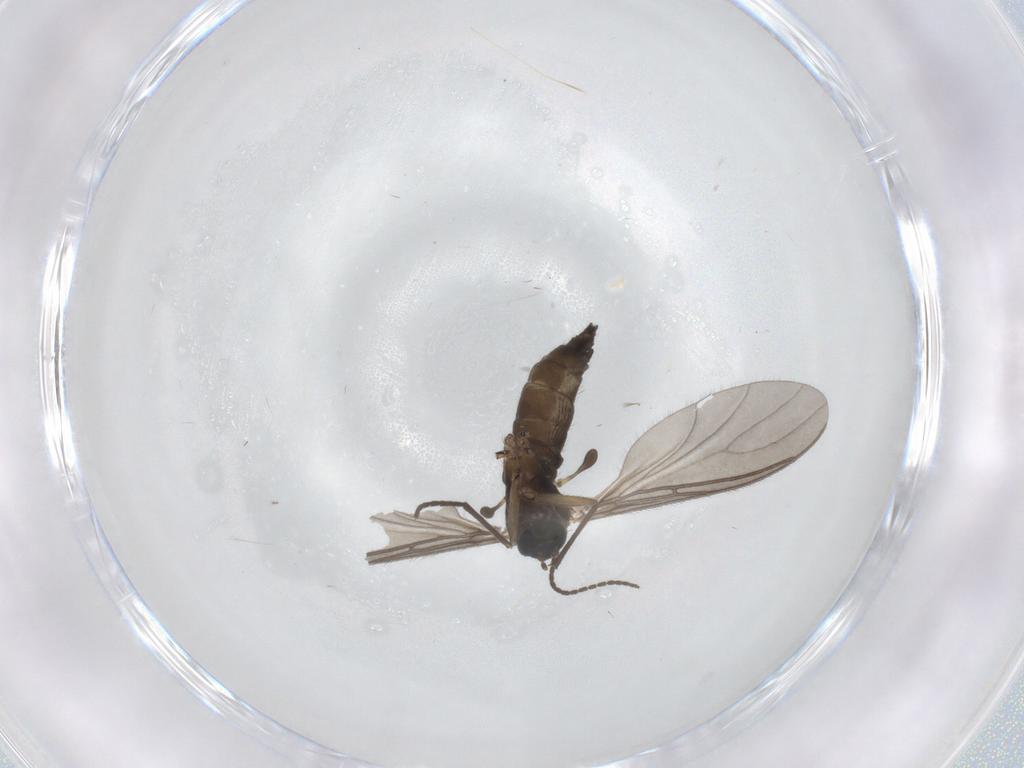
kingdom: Animalia
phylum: Arthropoda
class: Insecta
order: Diptera
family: Sciaridae
